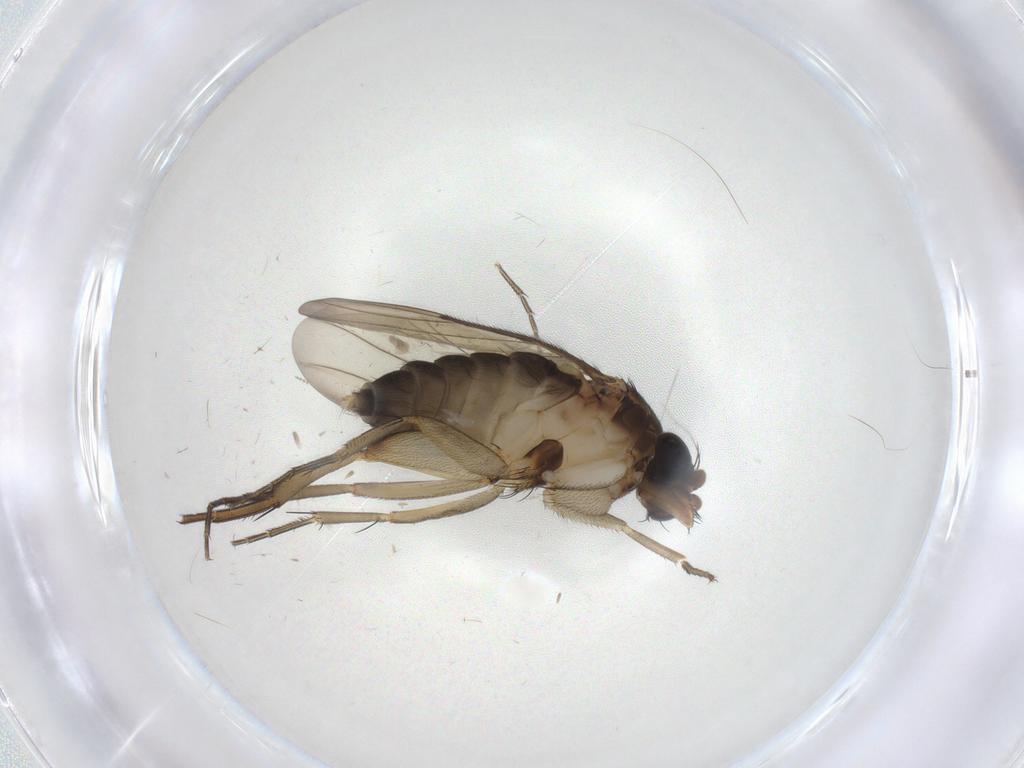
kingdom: Animalia
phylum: Arthropoda
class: Insecta
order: Diptera
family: Phoridae
